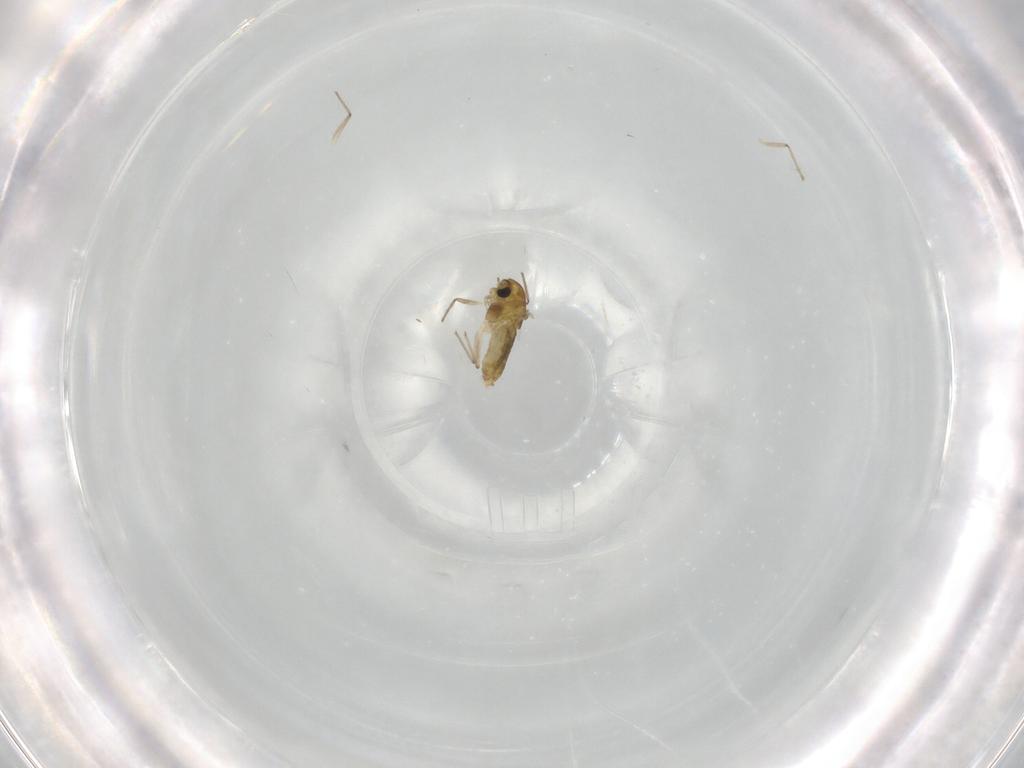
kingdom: Animalia
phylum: Arthropoda
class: Insecta
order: Diptera
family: Chironomidae
